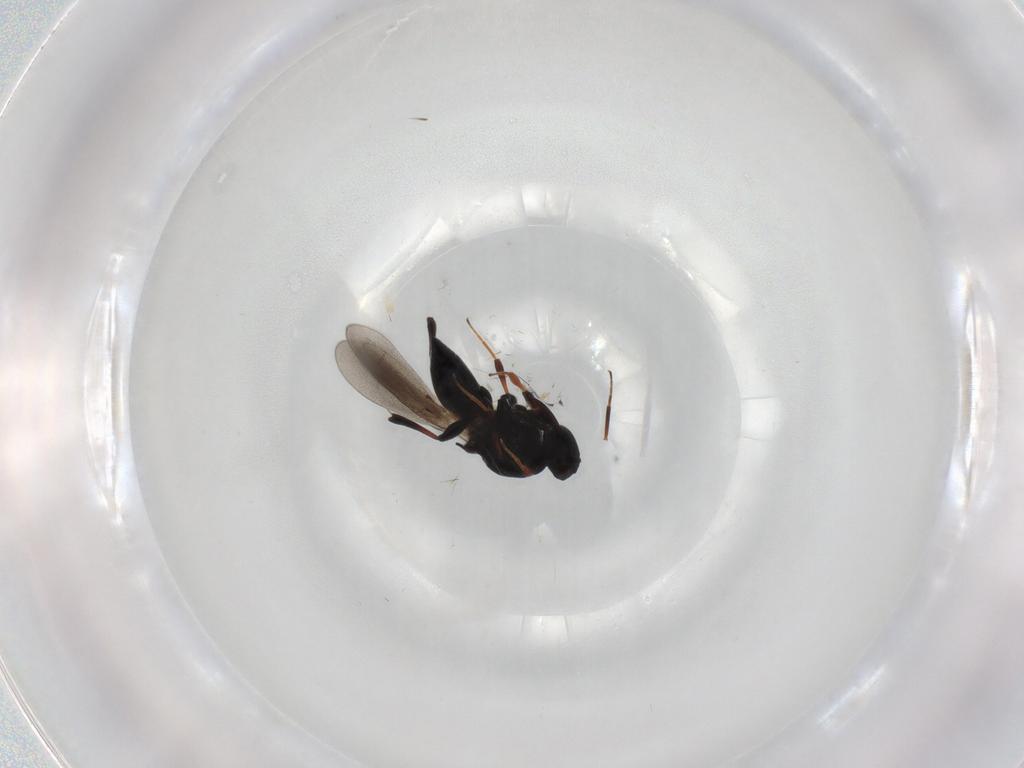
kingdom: Animalia
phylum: Arthropoda
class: Insecta
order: Hymenoptera
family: Platygastridae
